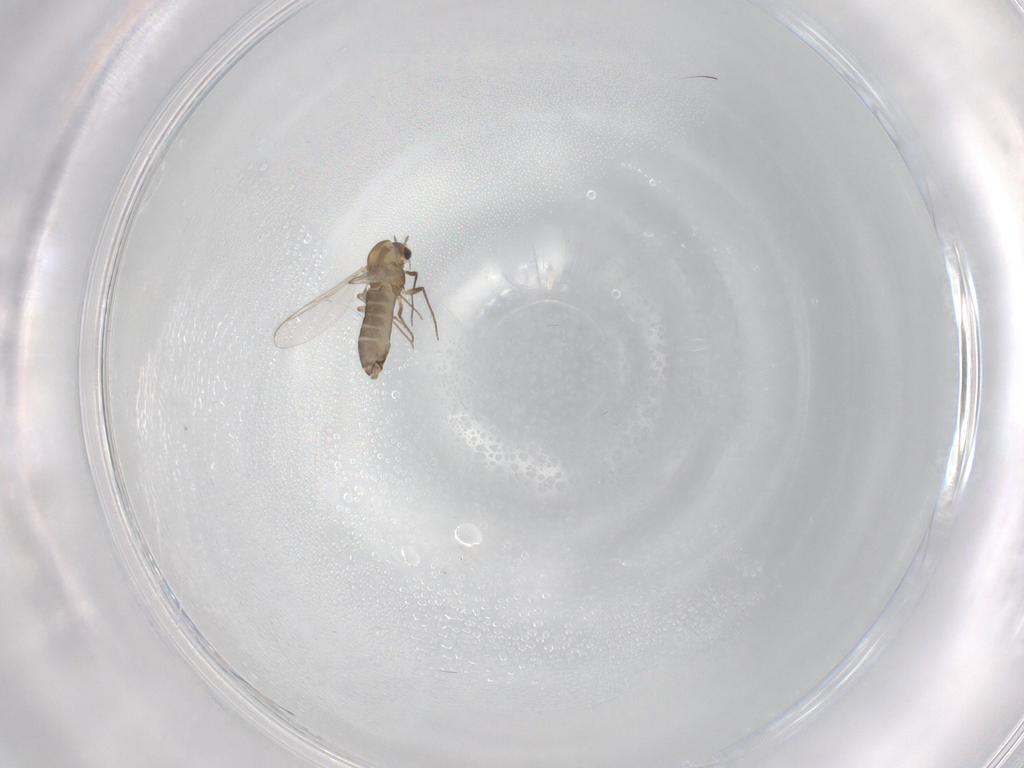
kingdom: Animalia
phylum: Arthropoda
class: Insecta
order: Diptera
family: Chironomidae
